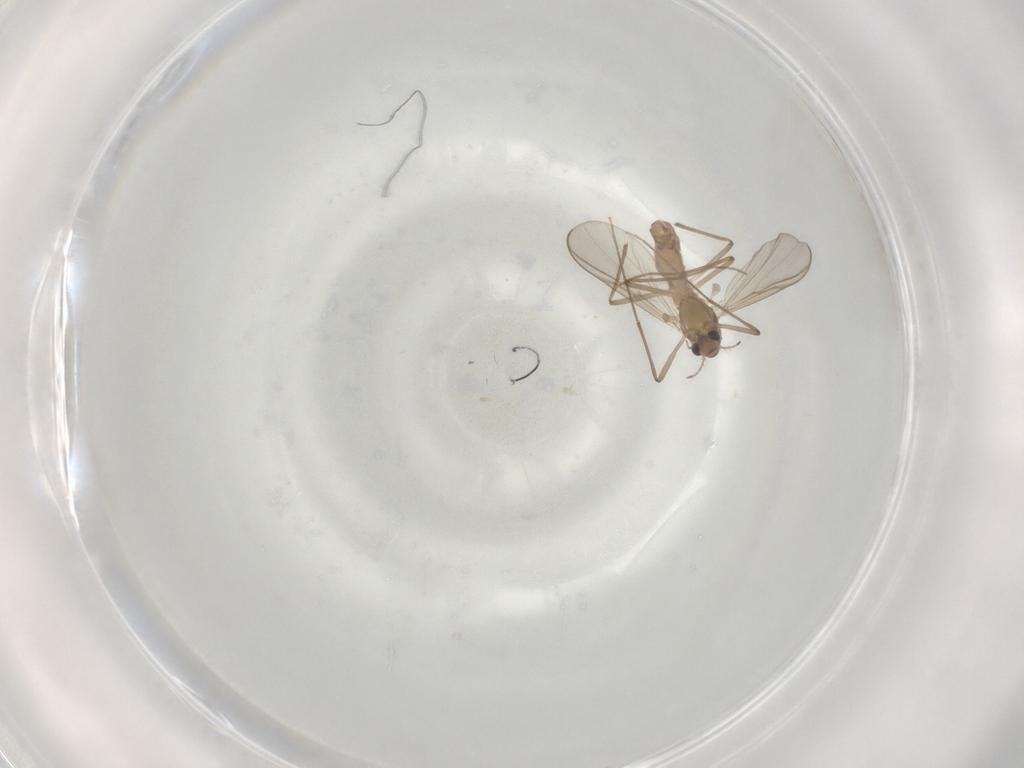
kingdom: Animalia
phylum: Arthropoda
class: Insecta
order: Diptera
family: Chironomidae
